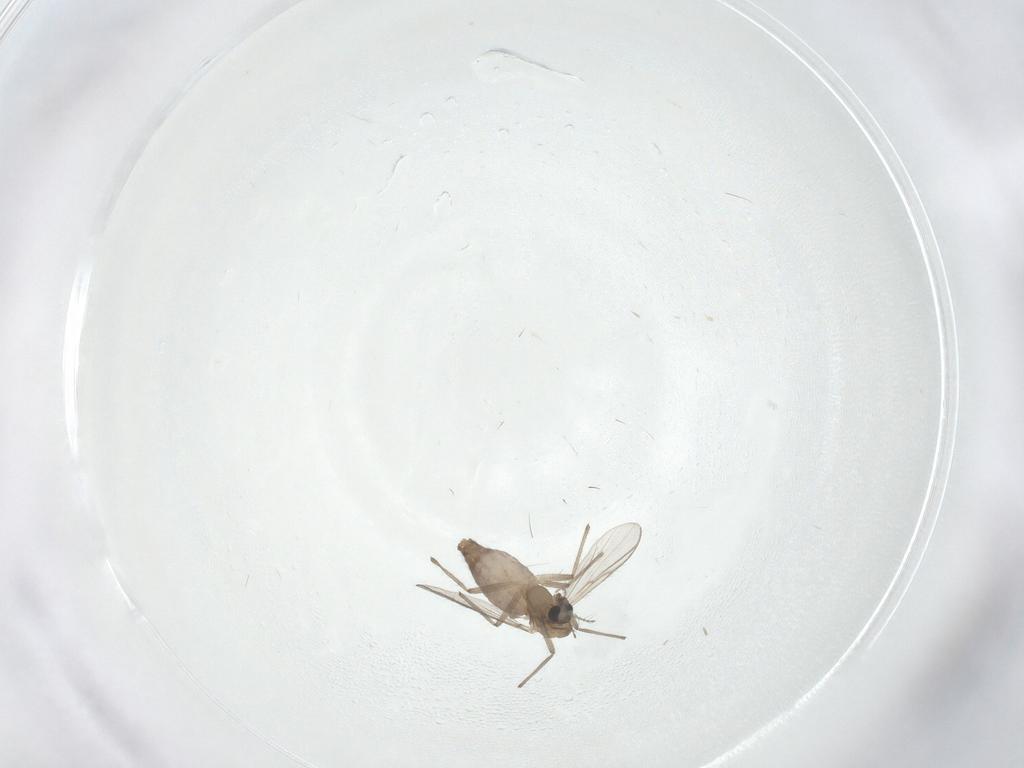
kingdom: Animalia
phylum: Arthropoda
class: Insecta
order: Diptera
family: Chironomidae
